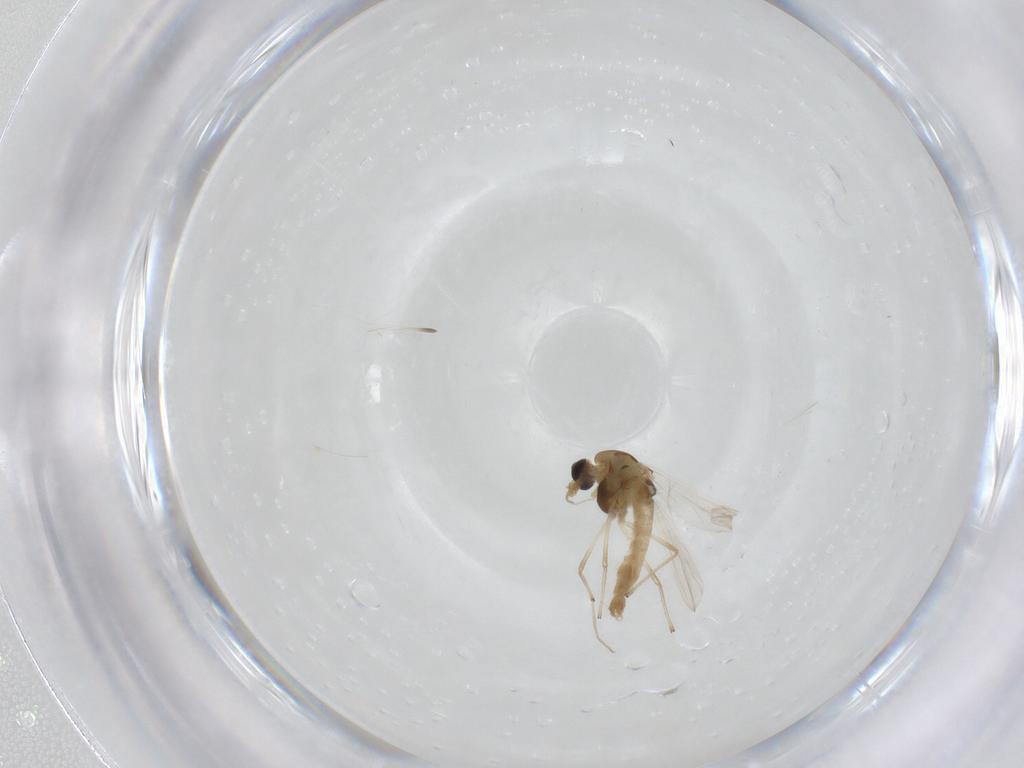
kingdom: Animalia
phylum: Arthropoda
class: Insecta
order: Diptera
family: Chironomidae
